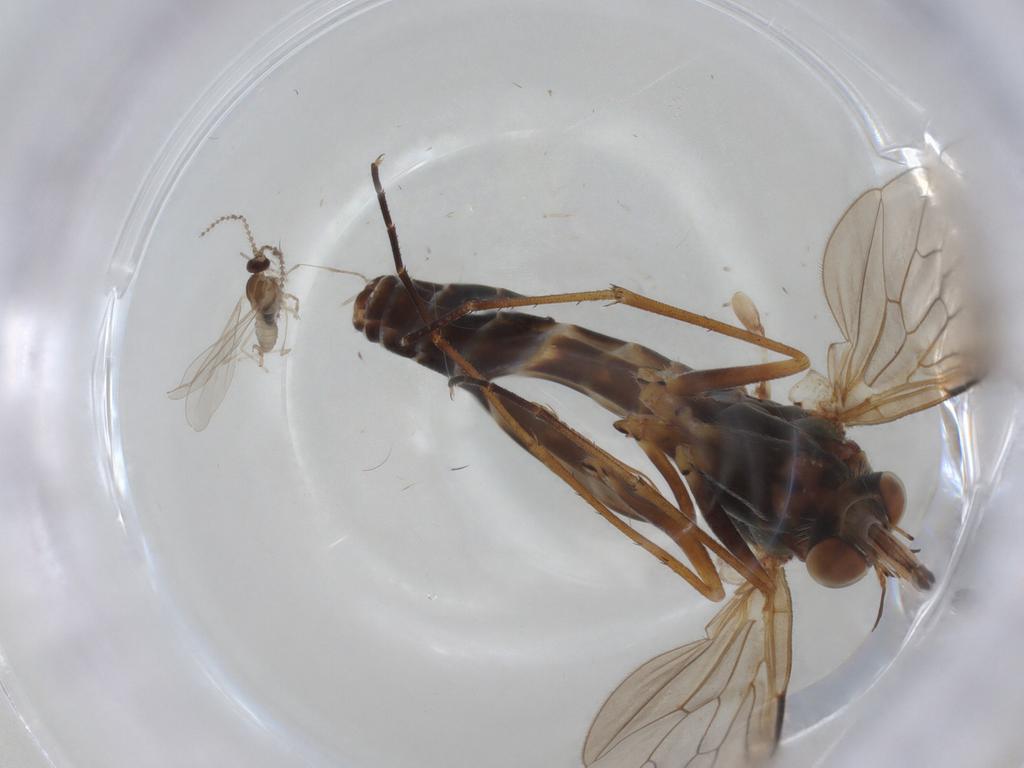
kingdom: Animalia
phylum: Arthropoda
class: Insecta
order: Diptera
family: Bombyliidae
